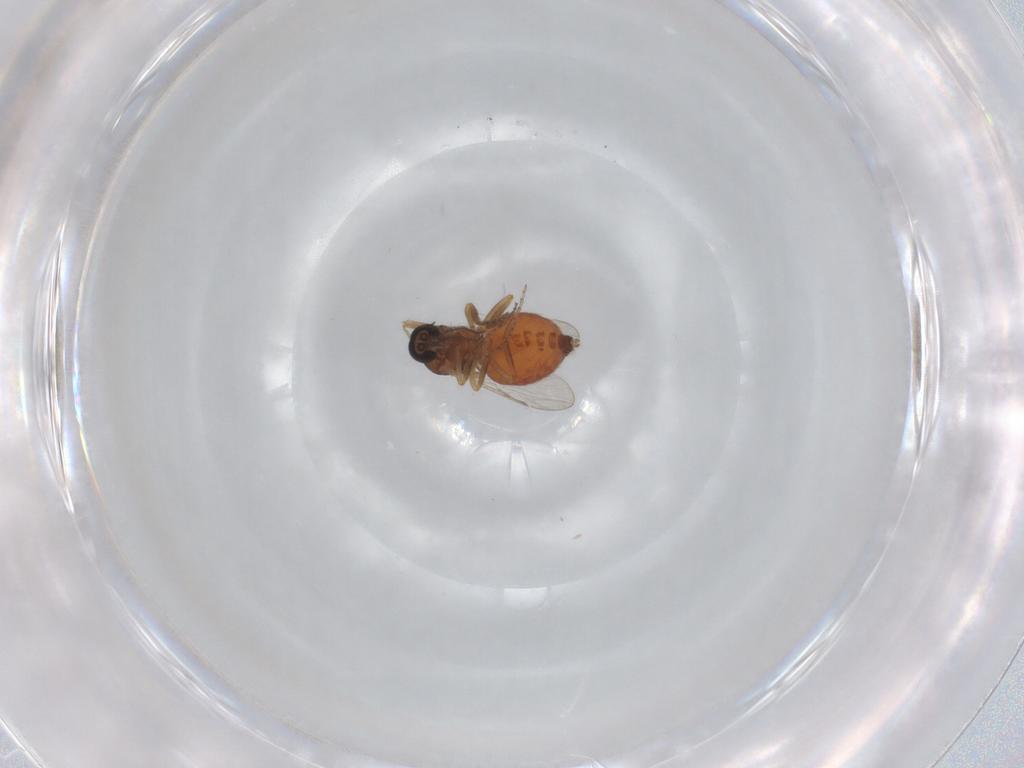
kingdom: Animalia
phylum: Arthropoda
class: Insecta
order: Diptera
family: Ceratopogonidae
